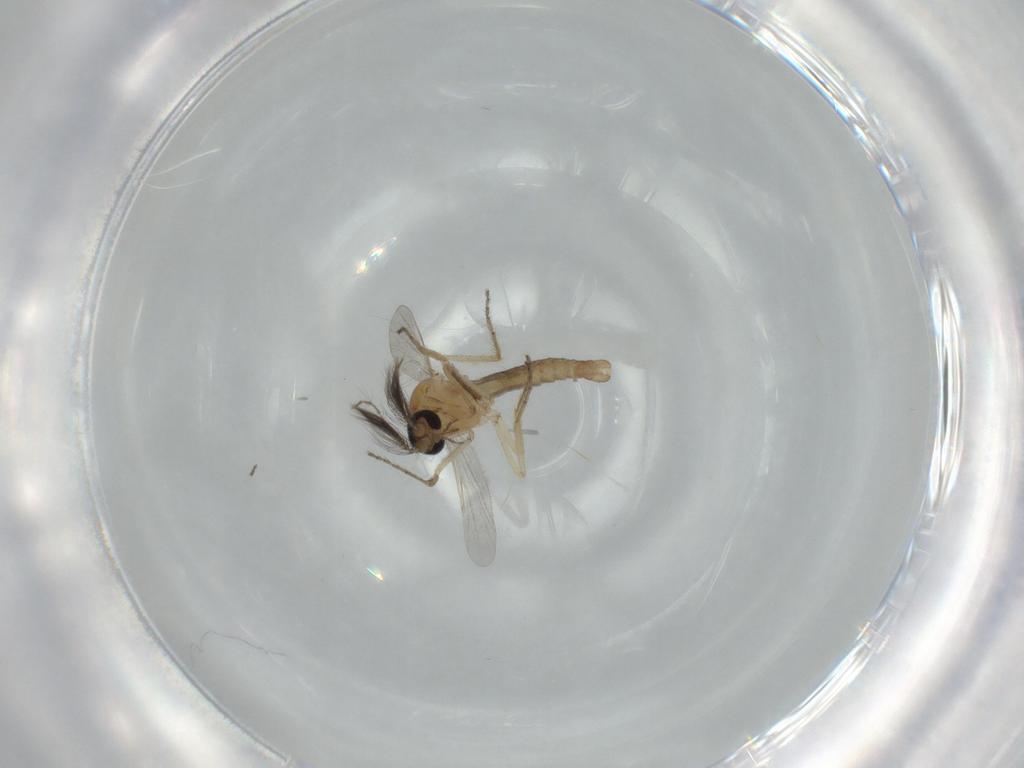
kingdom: Animalia
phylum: Arthropoda
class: Insecta
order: Diptera
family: Ceratopogonidae
